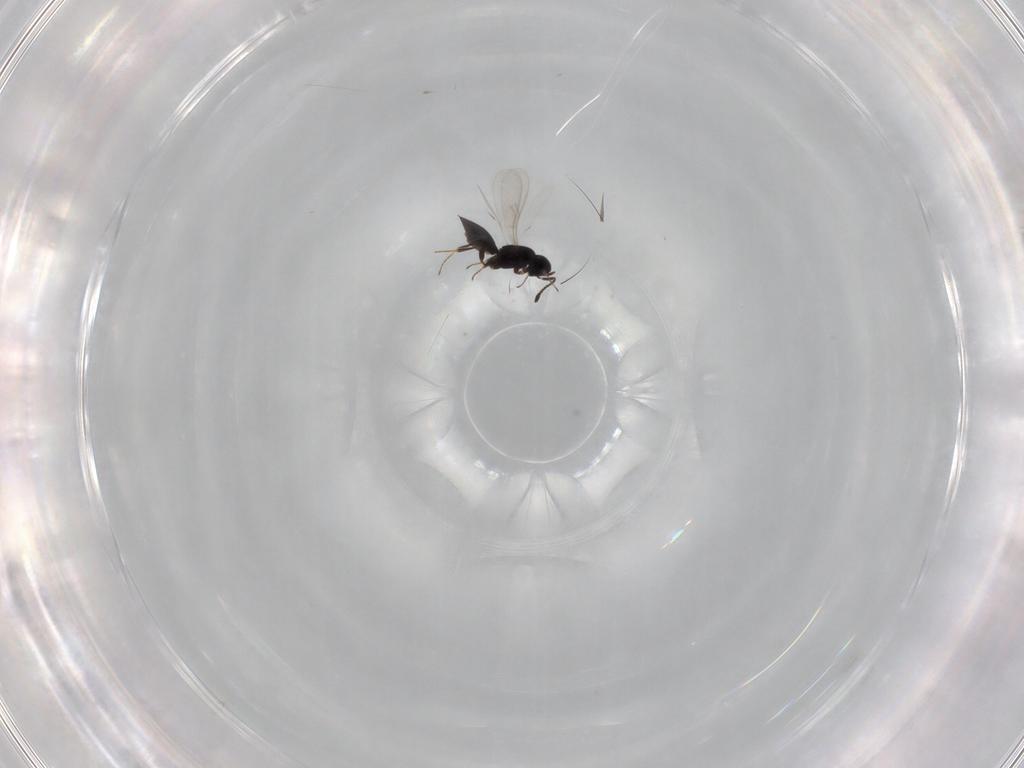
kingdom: Animalia
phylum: Arthropoda
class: Insecta
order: Hymenoptera
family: Scelionidae
